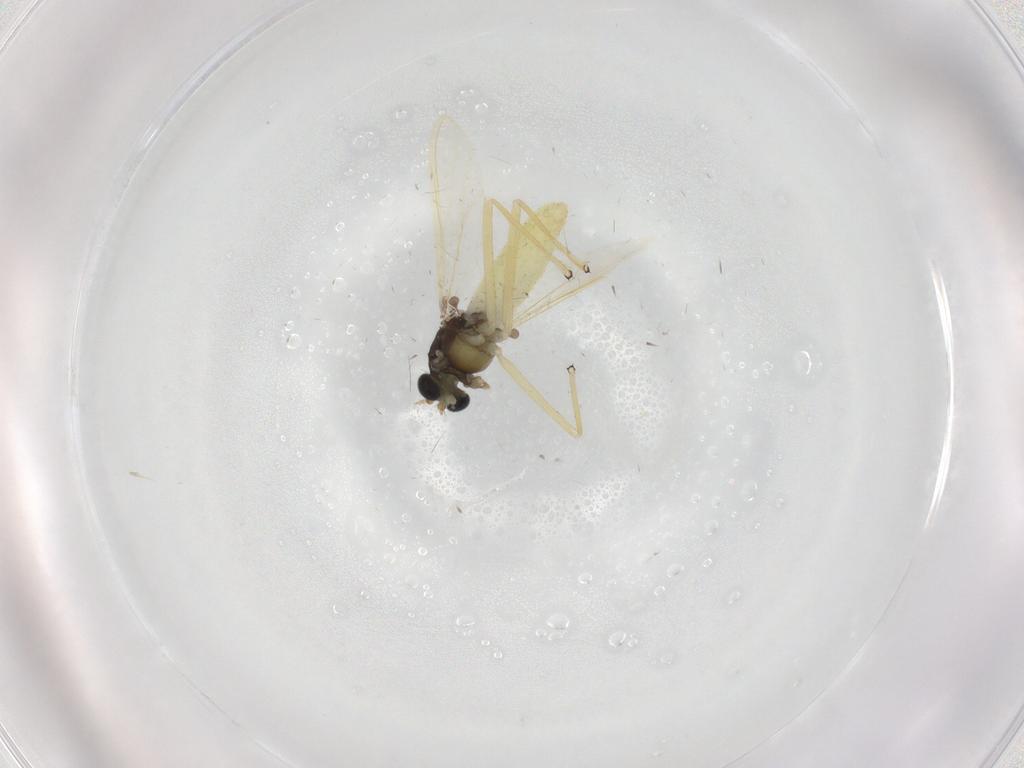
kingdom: Animalia
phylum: Arthropoda
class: Insecta
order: Diptera
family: Chironomidae
